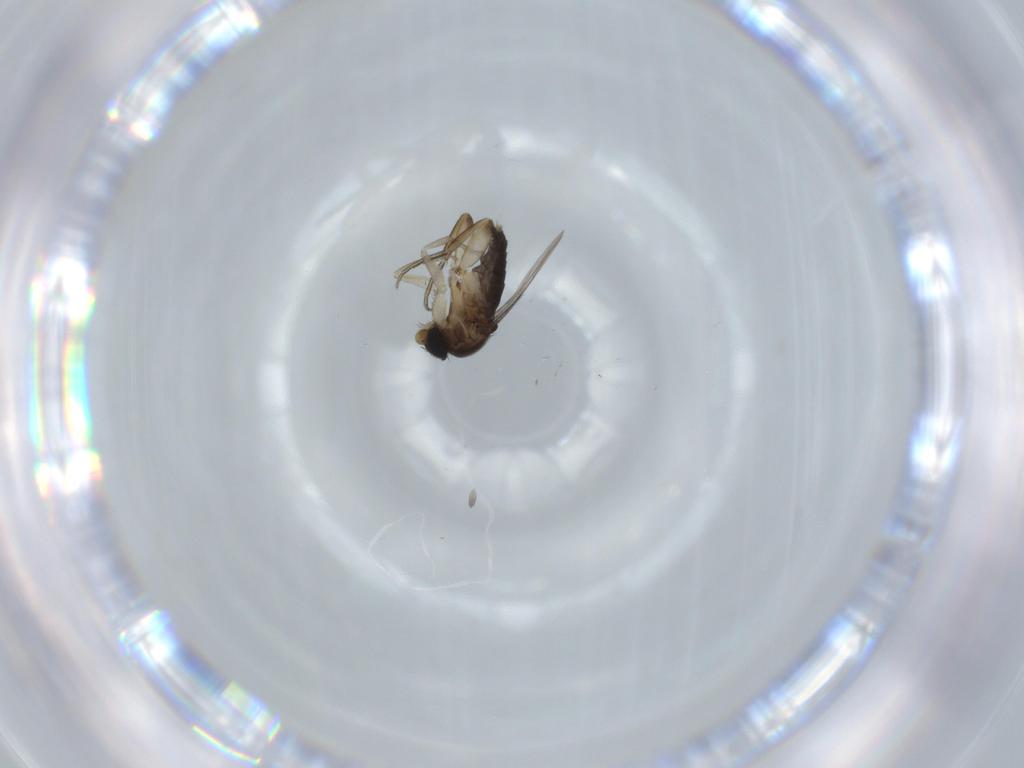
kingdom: Animalia
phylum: Arthropoda
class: Insecta
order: Diptera
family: Phoridae
